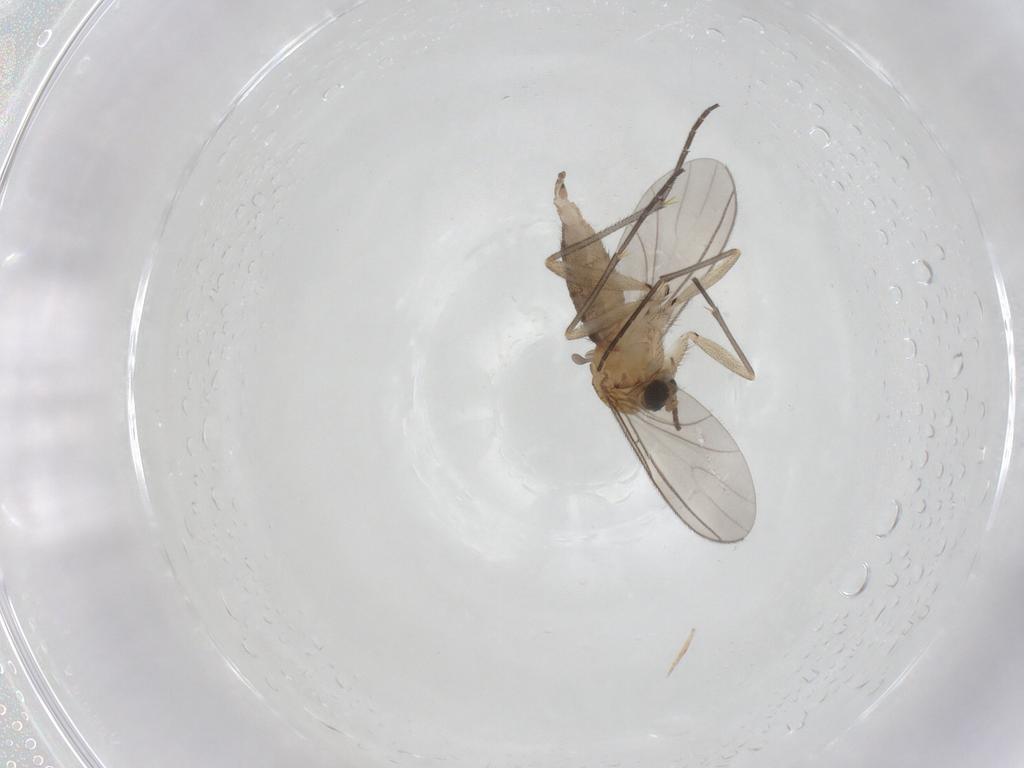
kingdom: Animalia
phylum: Arthropoda
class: Insecta
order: Diptera
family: Sciaridae
